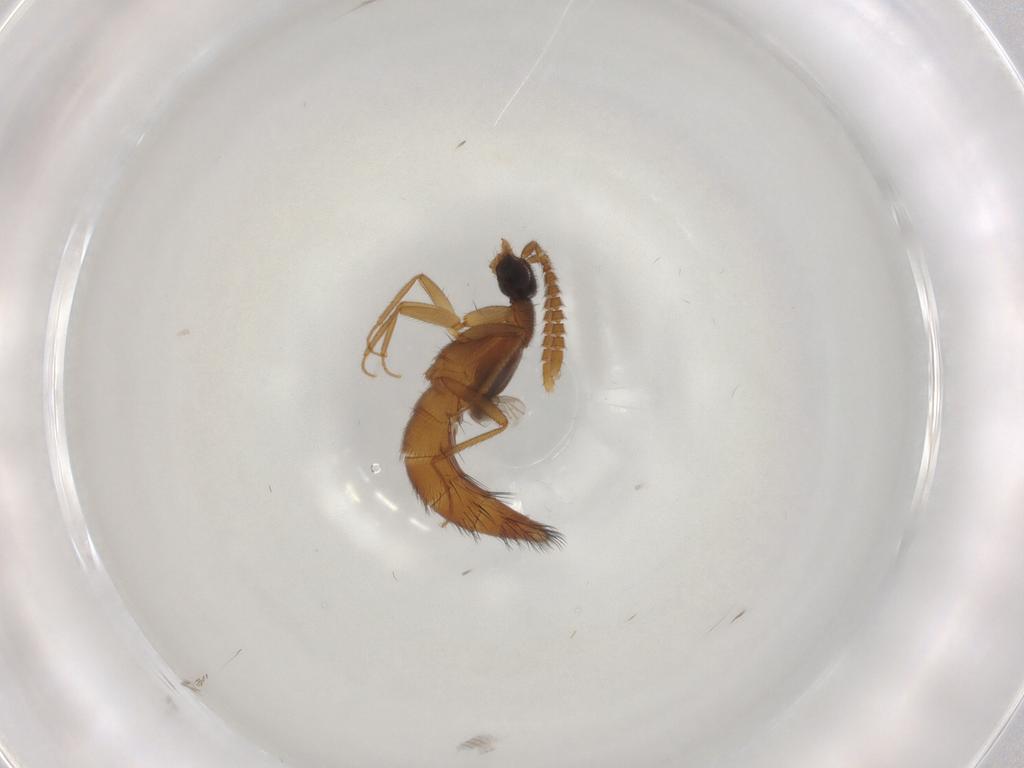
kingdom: Animalia
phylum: Arthropoda
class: Insecta
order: Coleoptera
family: Staphylinidae
